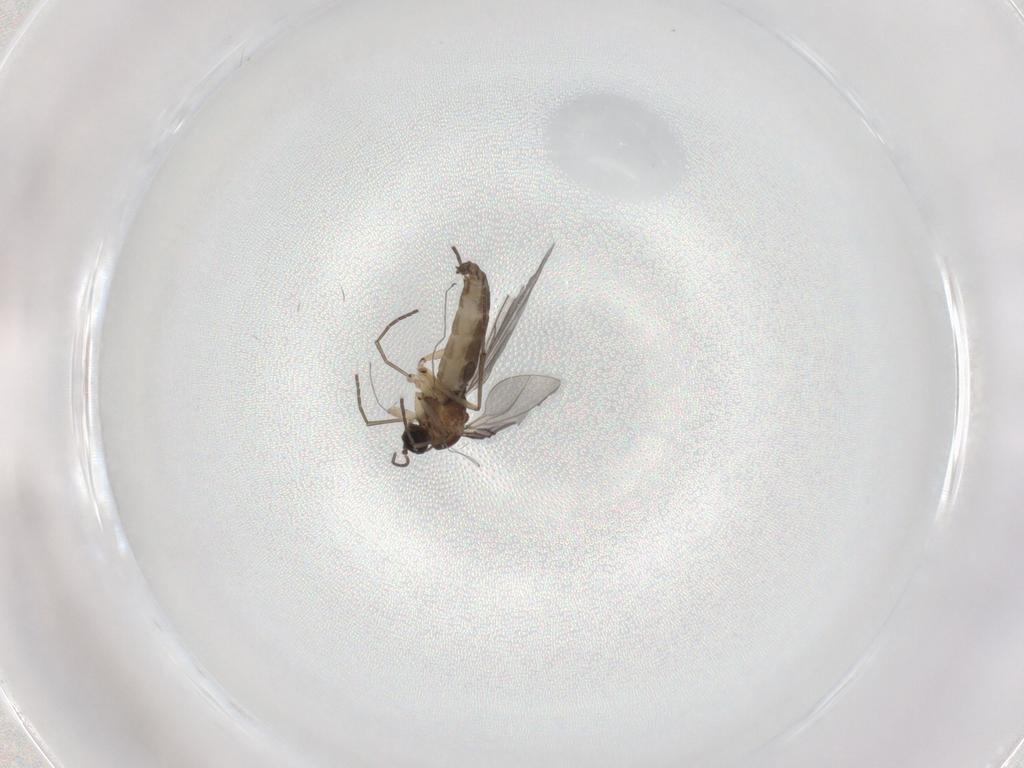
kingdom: Animalia
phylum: Arthropoda
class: Insecta
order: Diptera
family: Sciaridae
